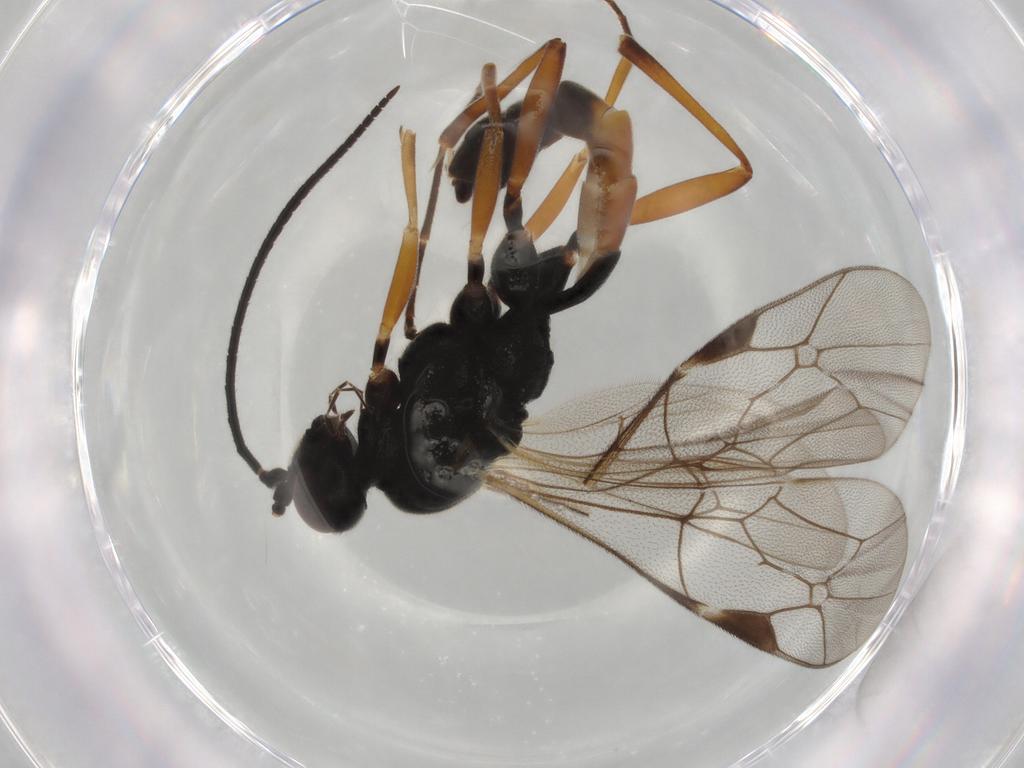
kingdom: Animalia
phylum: Arthropoda
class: Insecta
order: Hymenoptera
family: Formicidae
